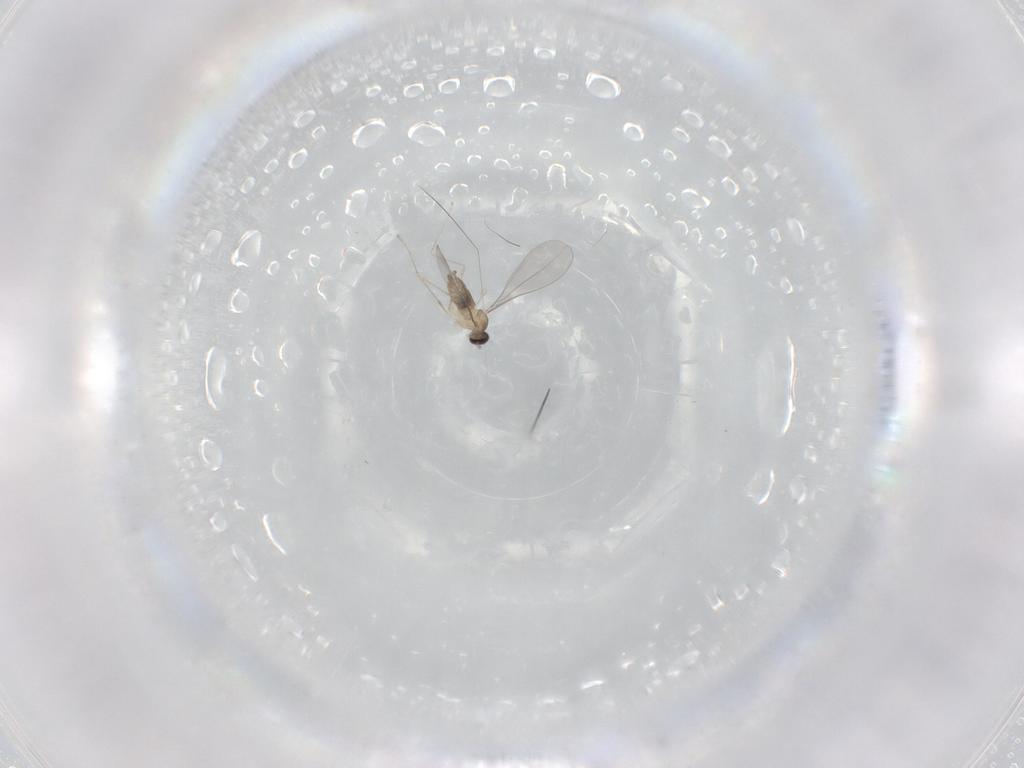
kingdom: Animalia
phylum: Arthropoda
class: Insecta
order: Diptera
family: Cecidomyiidae
